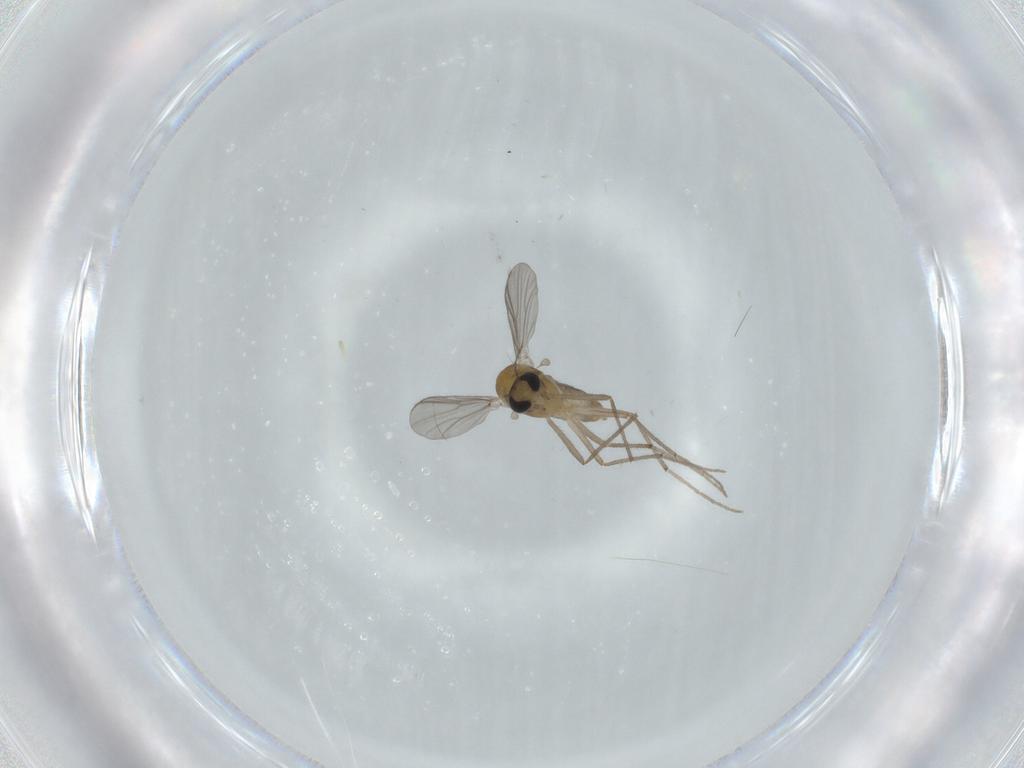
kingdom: Animalia
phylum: Arthropoda
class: Insecta
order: Diptera
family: Chironomidae
